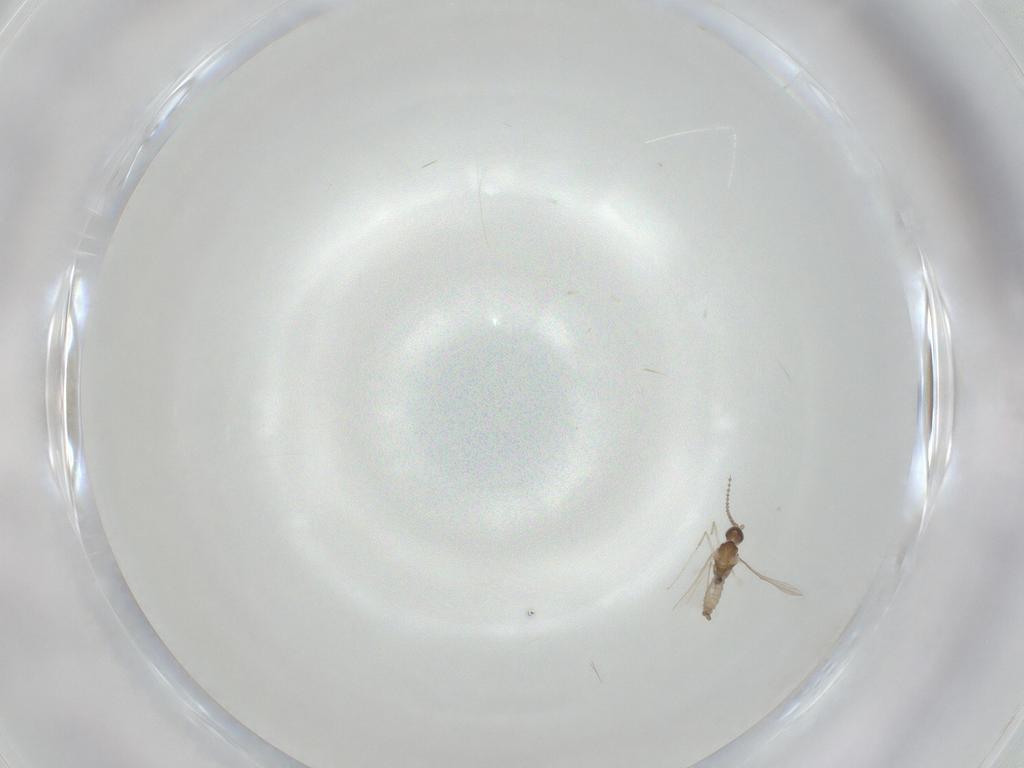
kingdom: Animalia
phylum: Arthropoda
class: Insecta
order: Diptera
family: Cecidomyiidae
